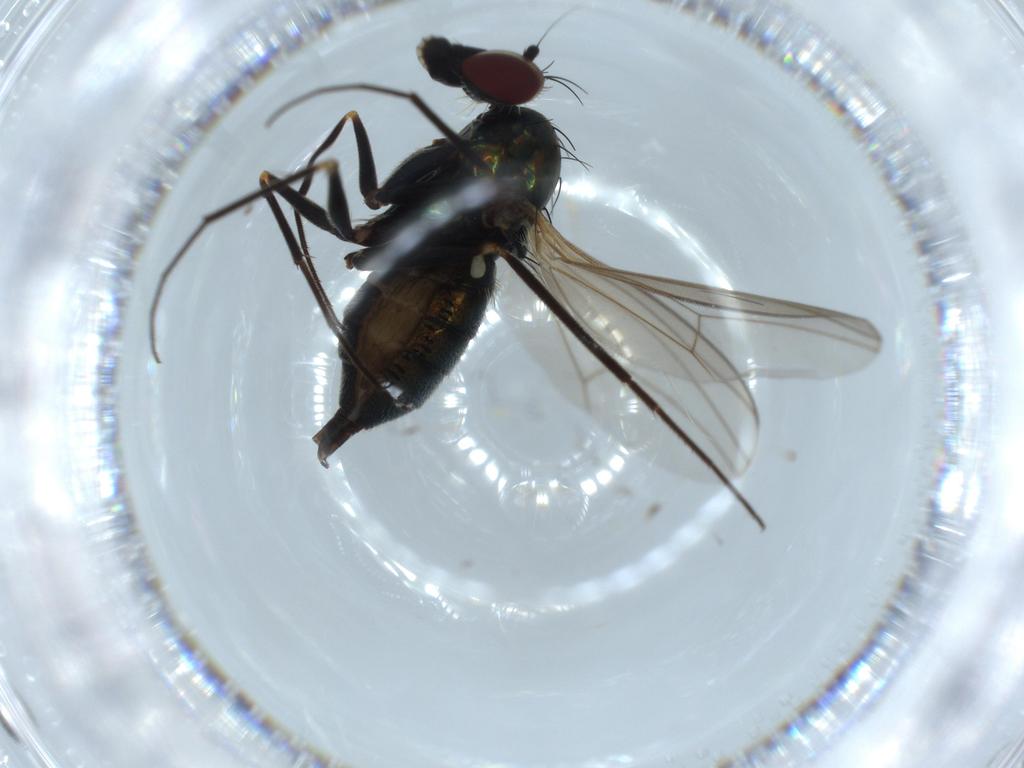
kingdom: Animalia
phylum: Arthropoda
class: Insecta
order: Diptera
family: Dolichopodidae
